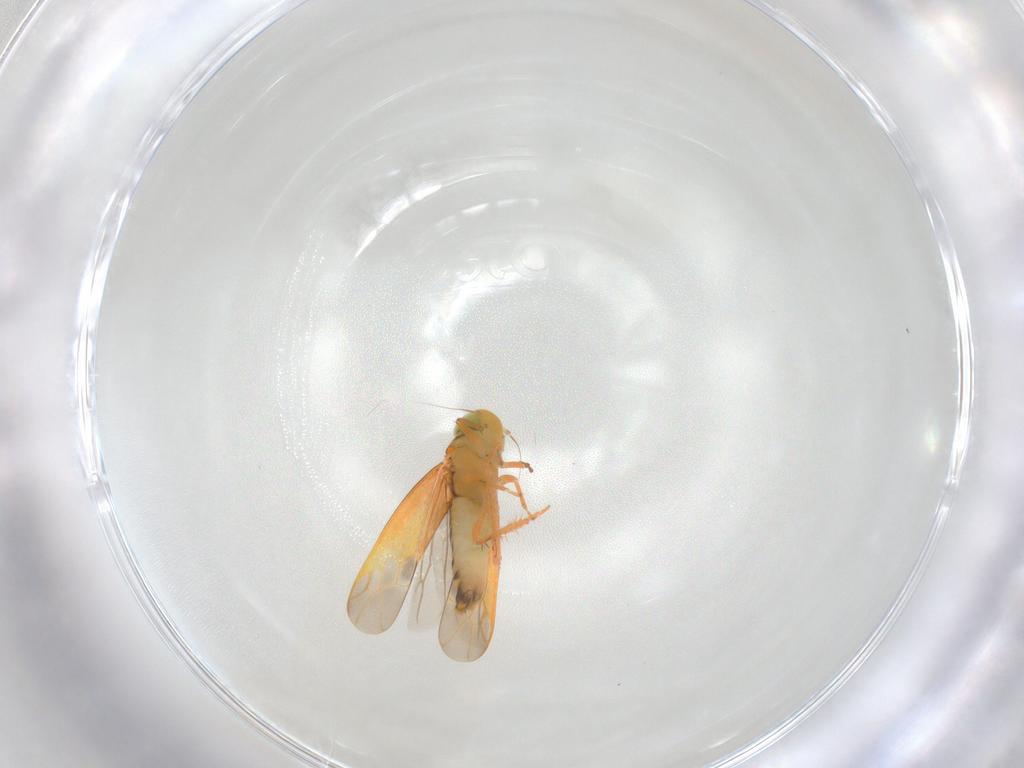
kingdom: Animalia
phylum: Arthropoda
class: Insecta
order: Hemiptera
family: Cicadellidae
